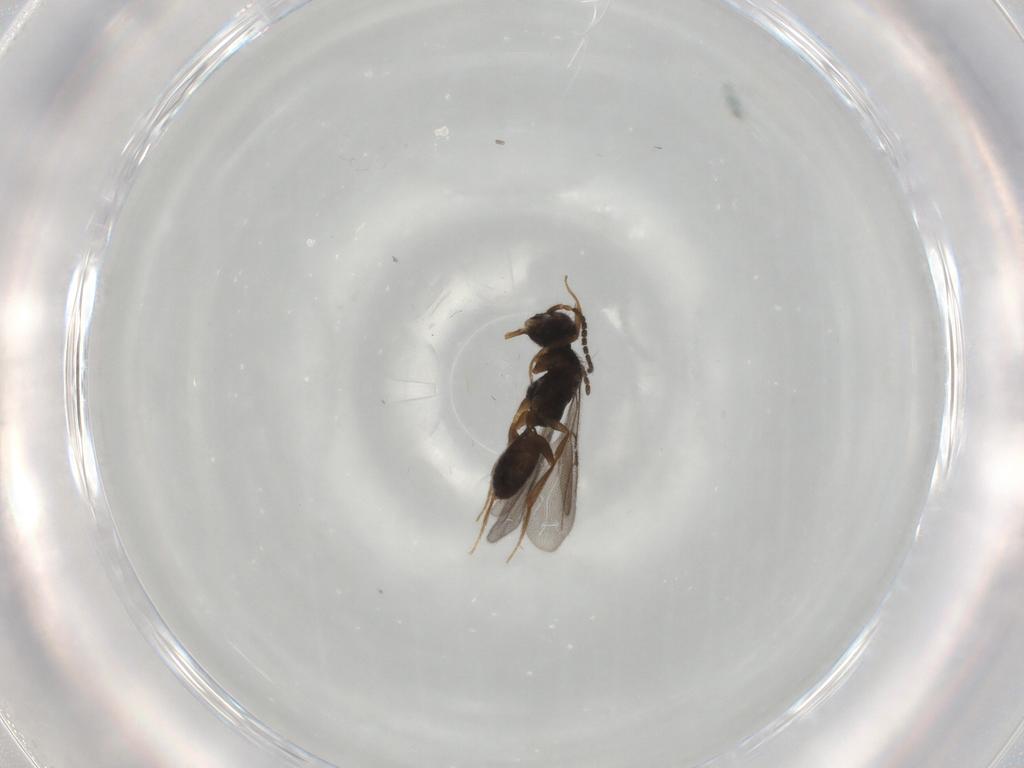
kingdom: Animalia
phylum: Arthropoda
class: Insecta
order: Hymenoptera
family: Bethylidae
